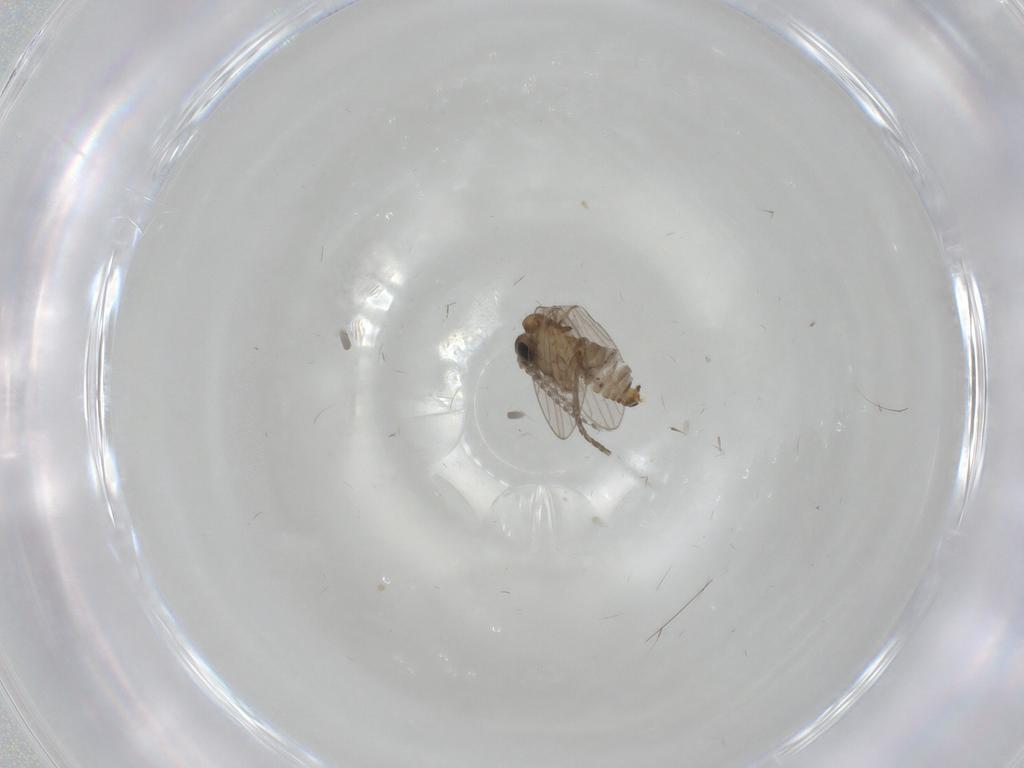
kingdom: Animalia
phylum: Arthropoda
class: Insecta
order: Diptera
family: Psychodidae
